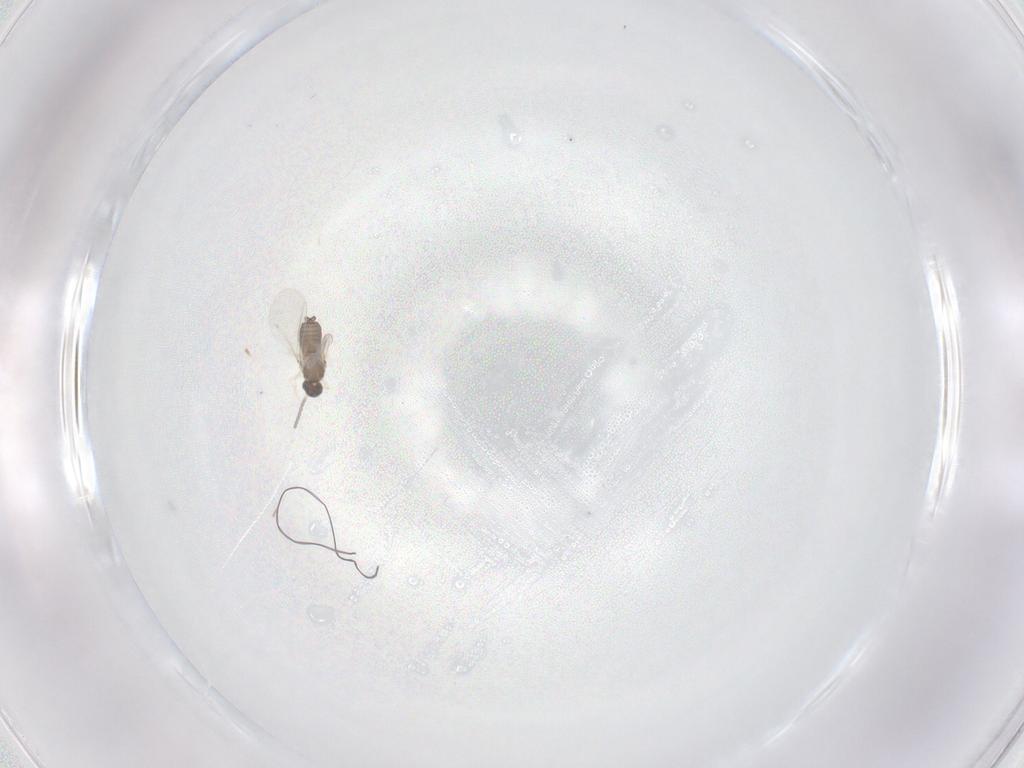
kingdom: Animalia
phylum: Arthropoda
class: Insecta
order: Diptera
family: Cecidomyiidae
